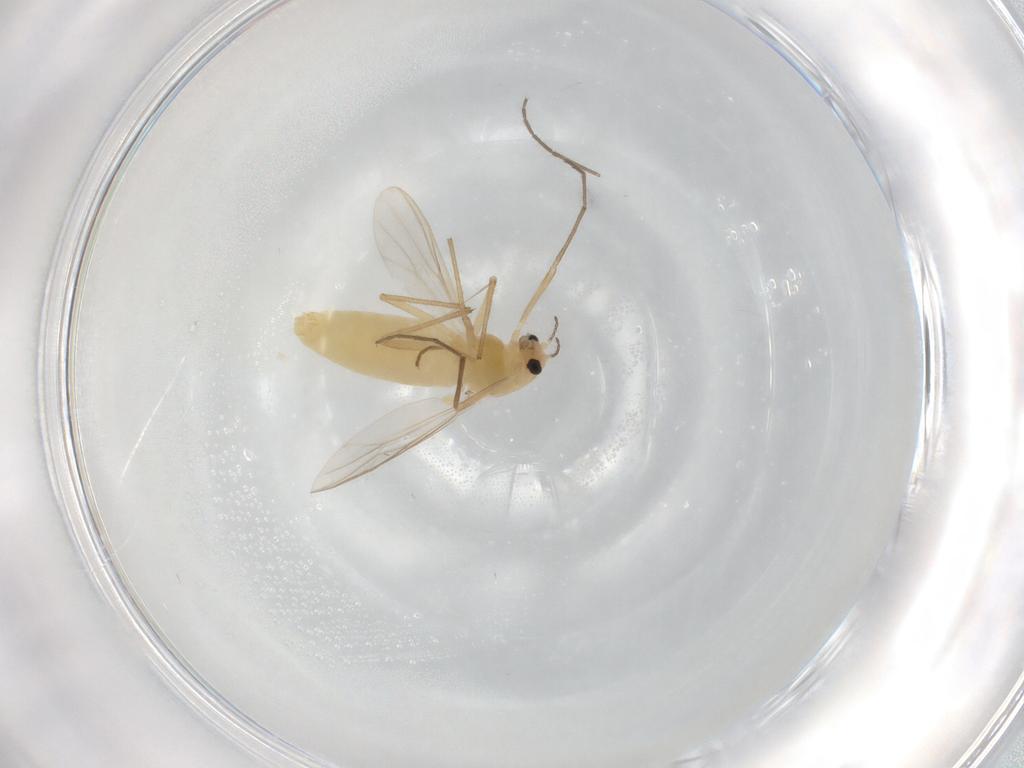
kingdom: Animalia
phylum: Arthropoda
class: Insecta
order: Diptera
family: Chironomidae
